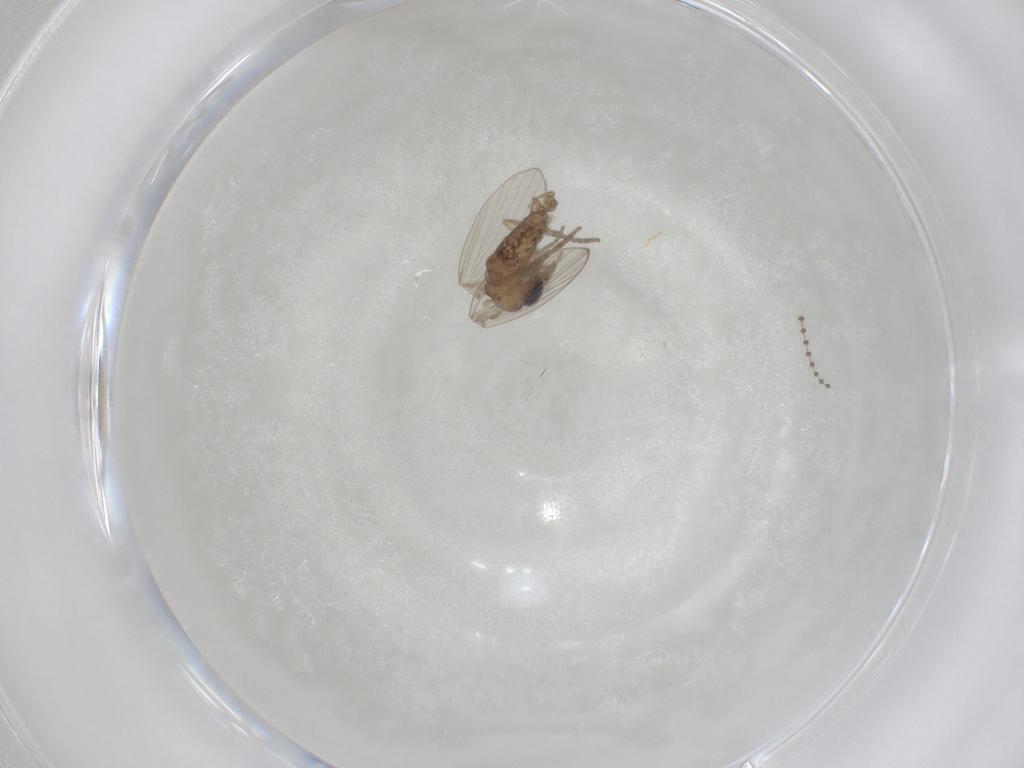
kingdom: Animalia
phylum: Arthropoda
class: Insecta
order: Diptera
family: Psychodidae
